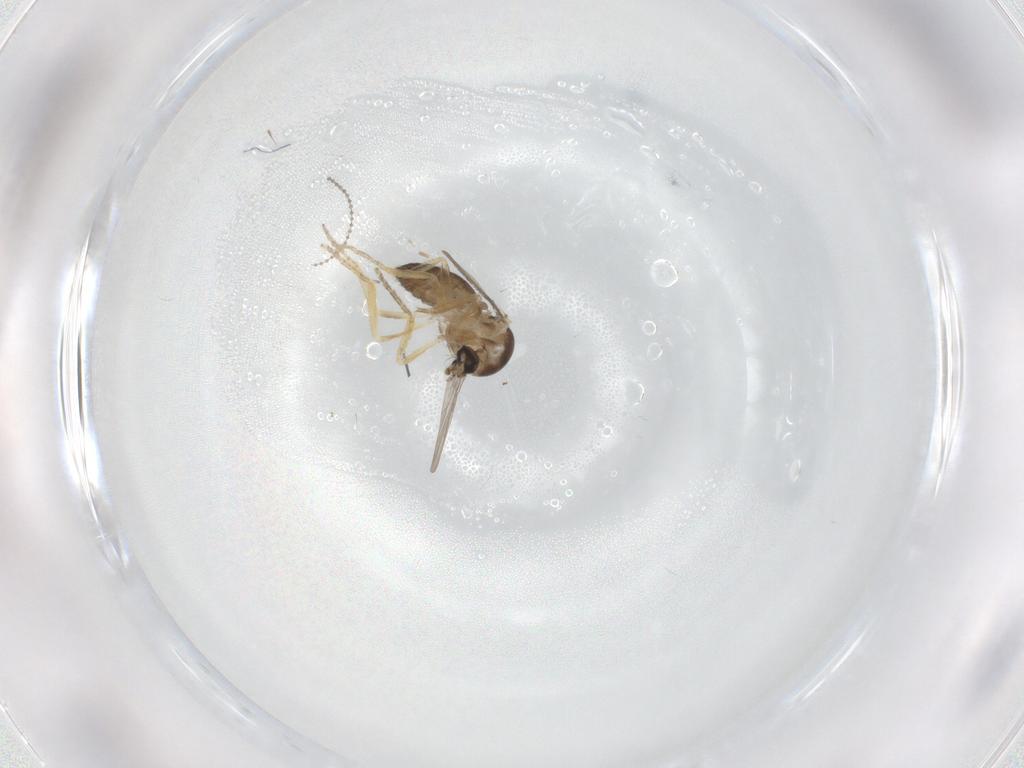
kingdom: Animalia
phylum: Arthropoda
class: Insecta
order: Diptera
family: Ceratopogonidae
